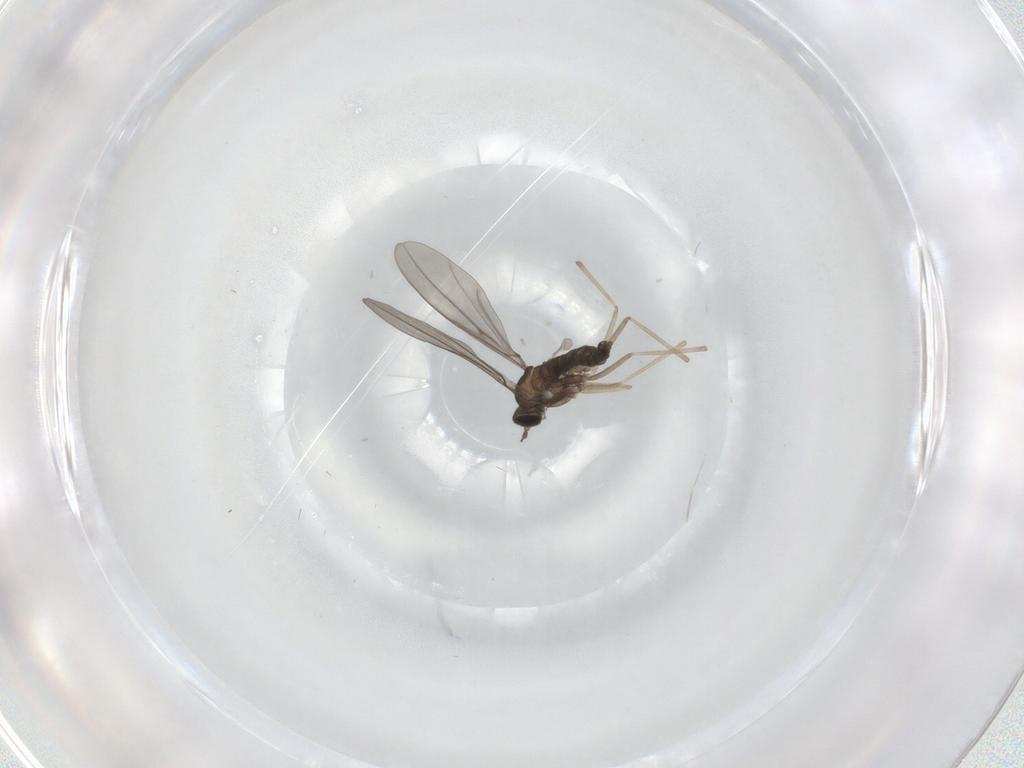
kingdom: Animalia
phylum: Arthropoda
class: Insecta
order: Diptera
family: Cecidomyiidae
